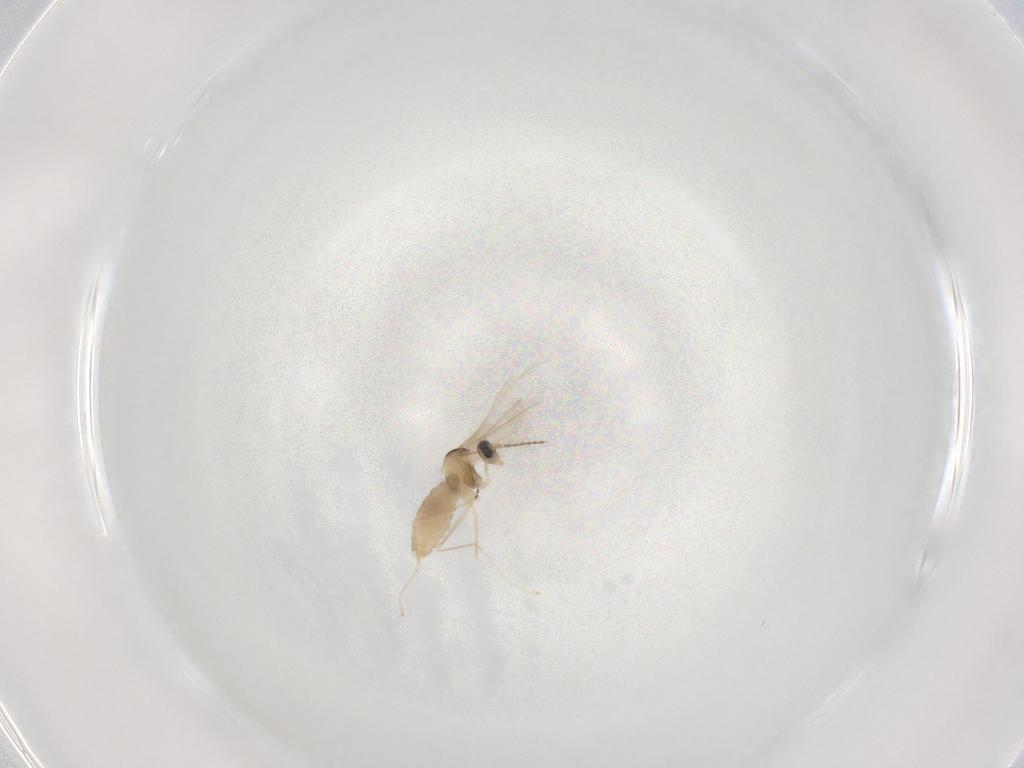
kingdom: Animalia
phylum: Arthropoda
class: Insecta
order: Diptera
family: Cecidomyiidae
